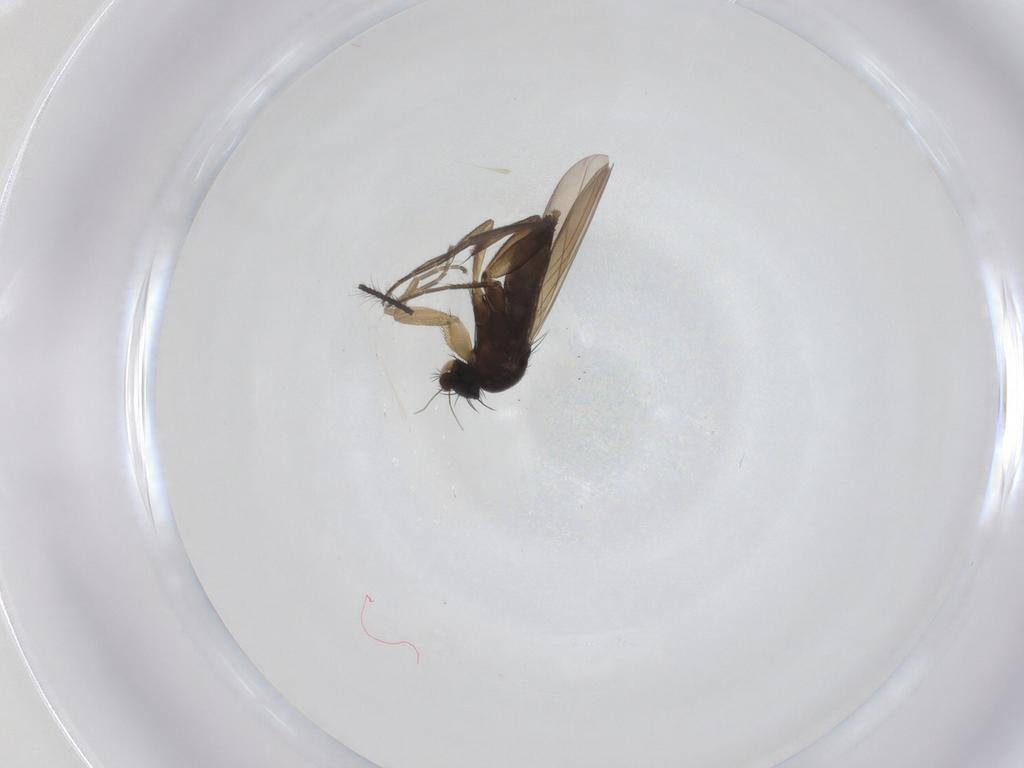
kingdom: Animalia
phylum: Arthropoda
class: Insecta
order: Diptera
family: Phoridae
